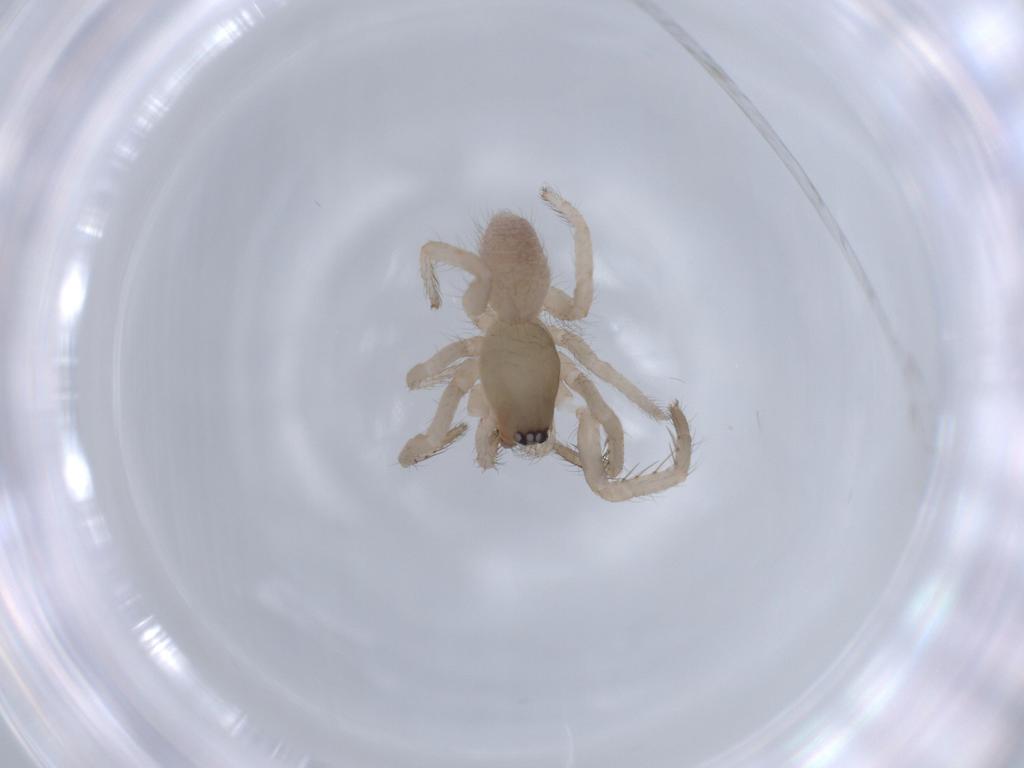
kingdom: Animalia
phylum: Arthropoda
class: Arachnida
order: Araneae
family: Segestriidae
